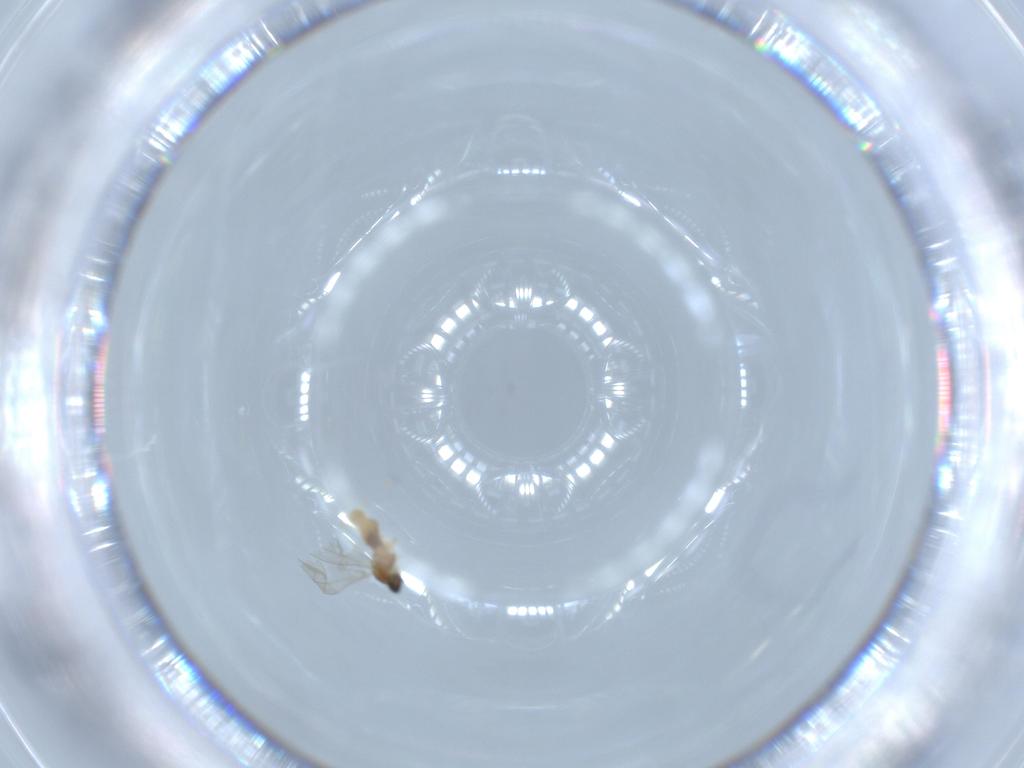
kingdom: Animalia
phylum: Arthropoda
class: Insecta
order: Diptera
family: Cecidomyiidae
